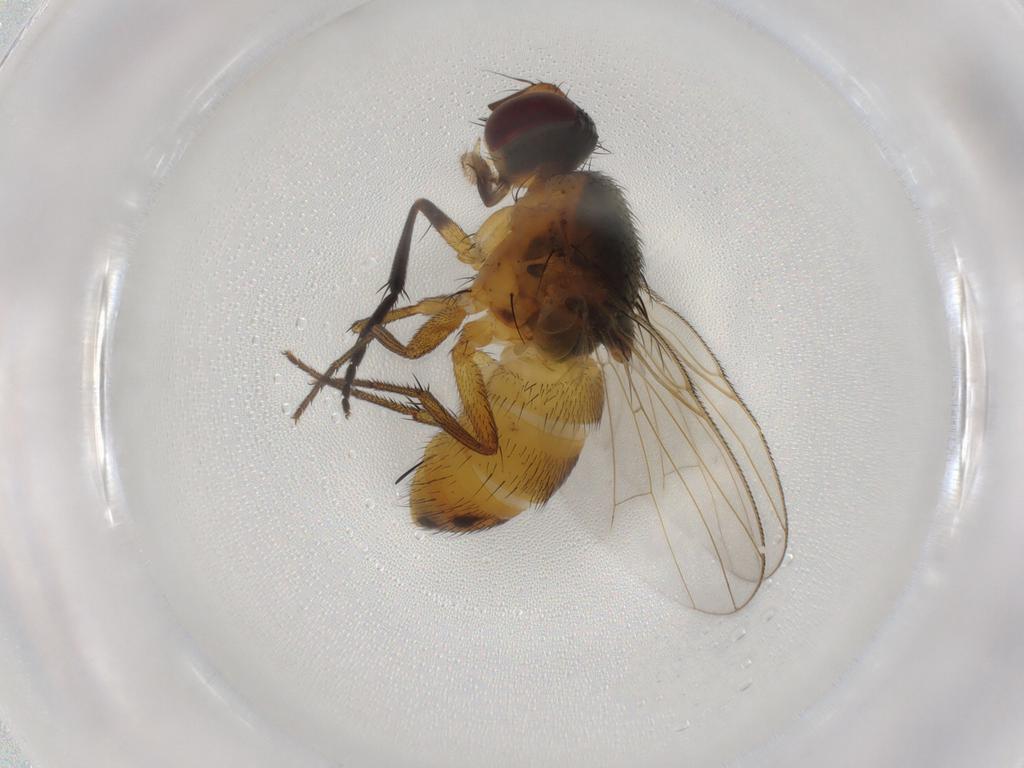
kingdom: Animalia
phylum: Arthropoda
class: Insecta
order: Diptera
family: Muscidae
